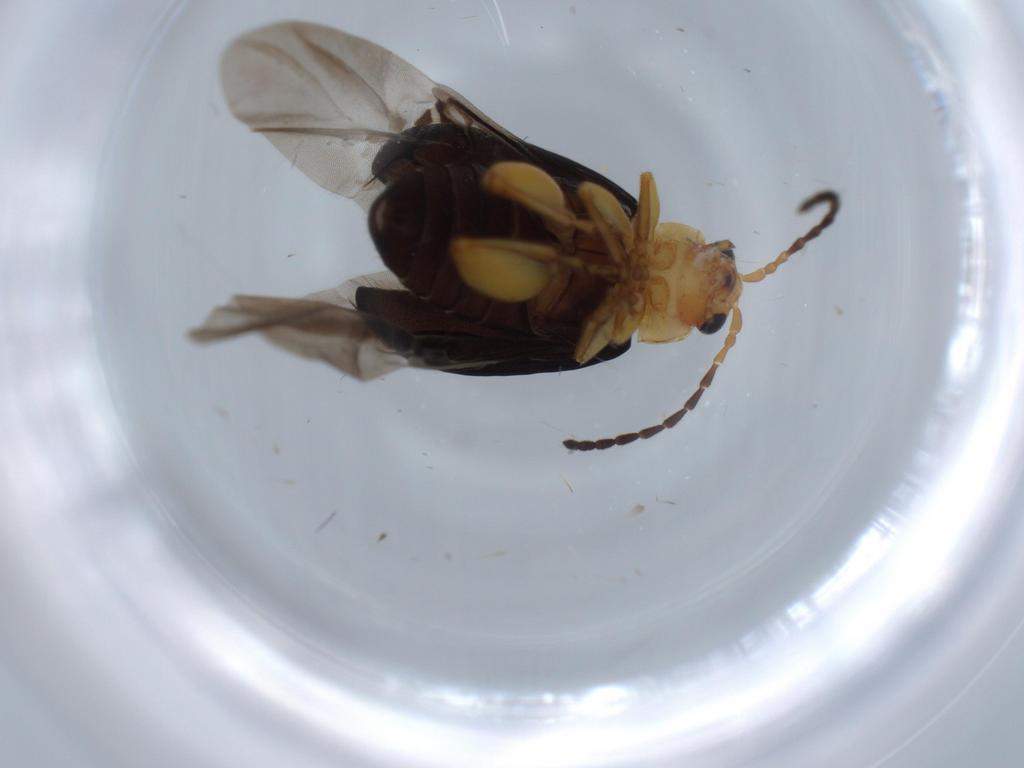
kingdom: Animalia
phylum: Arthropoda
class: Insecta
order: Coleoptera
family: Chrysomelidae
